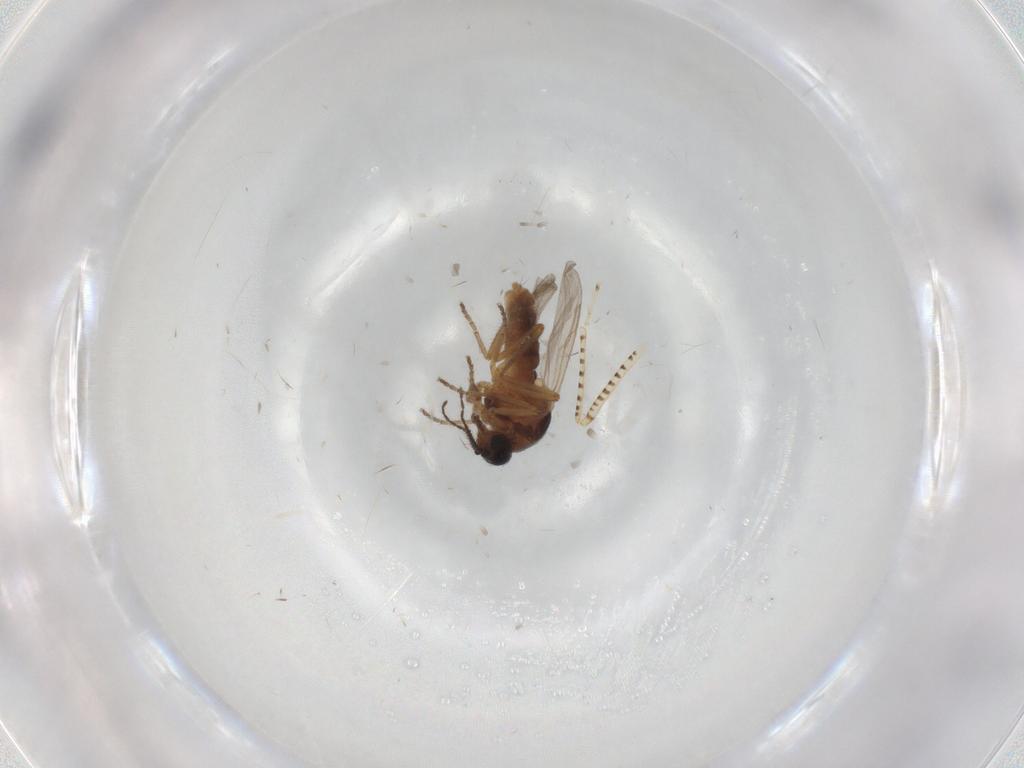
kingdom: Animalia
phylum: Arthropoda
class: Insecta
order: Diptera
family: Ceratopogonidae
